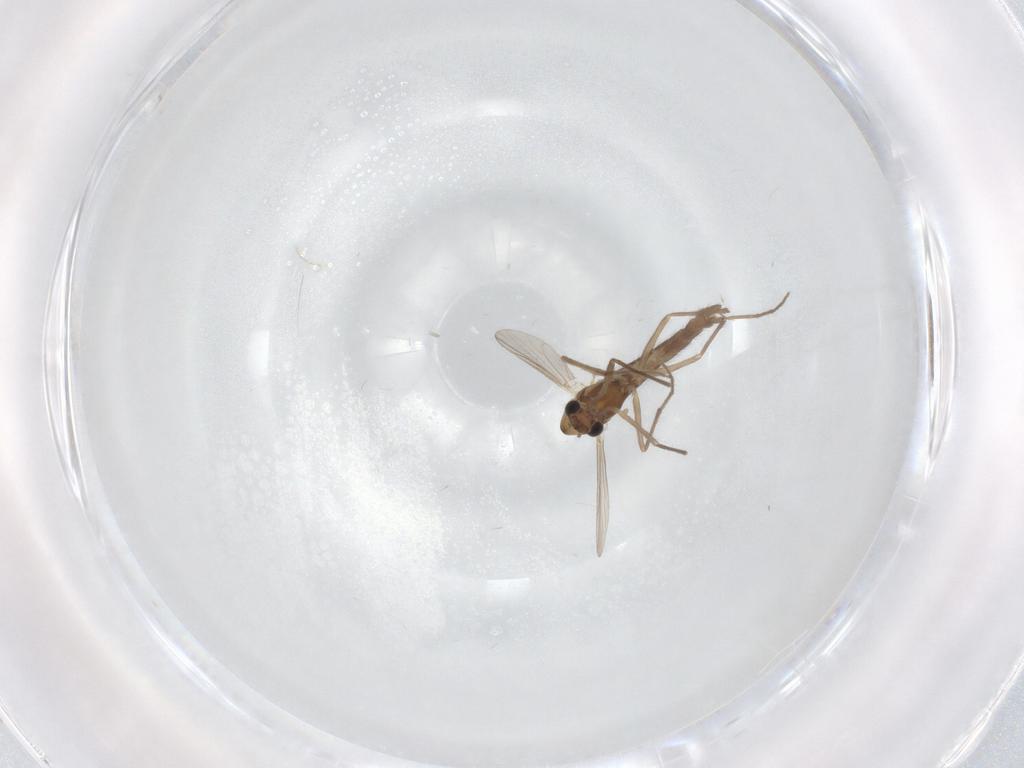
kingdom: Animalia
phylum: Arthropoda
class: Insecta
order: Diptera
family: Chironomidae
